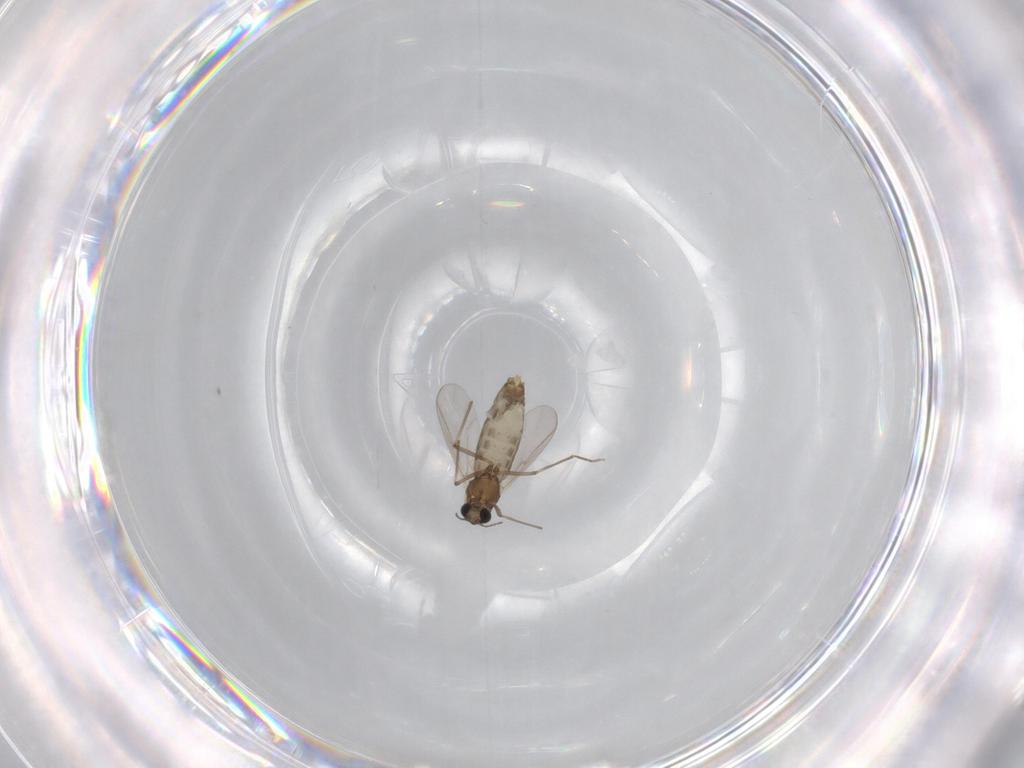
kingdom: Animalia
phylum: Arthropoda
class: Insecta
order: Diptera
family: Chironomidae
